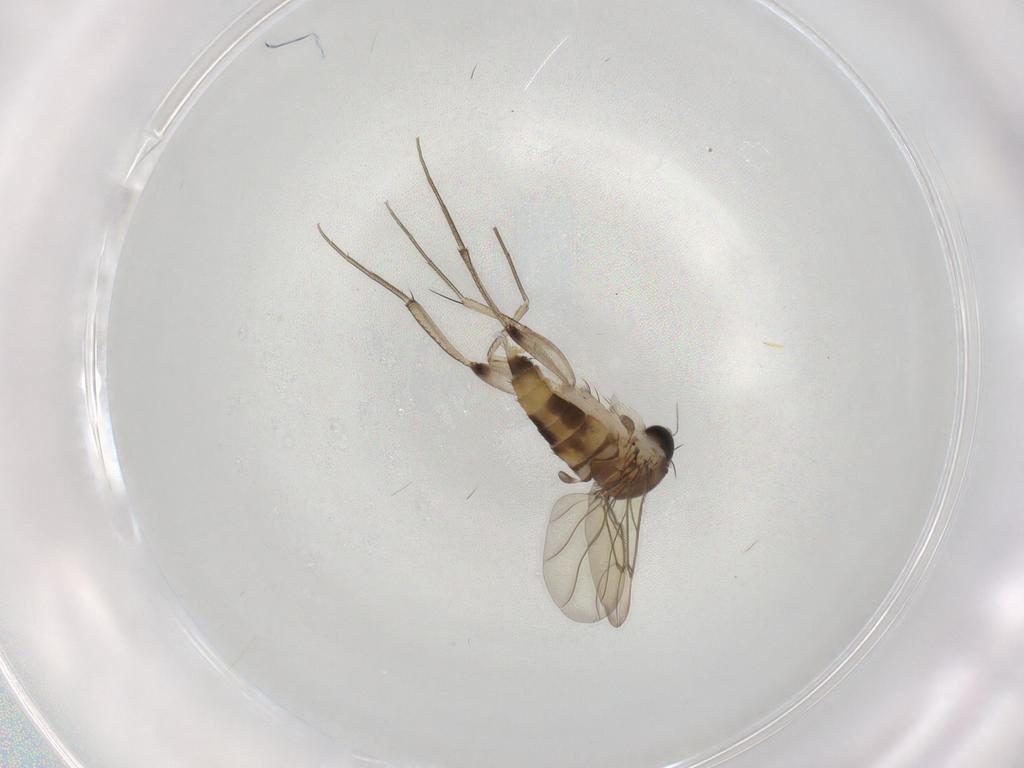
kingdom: Animalia
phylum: Arthropoda
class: Insecta
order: Diptera
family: Phoridae
